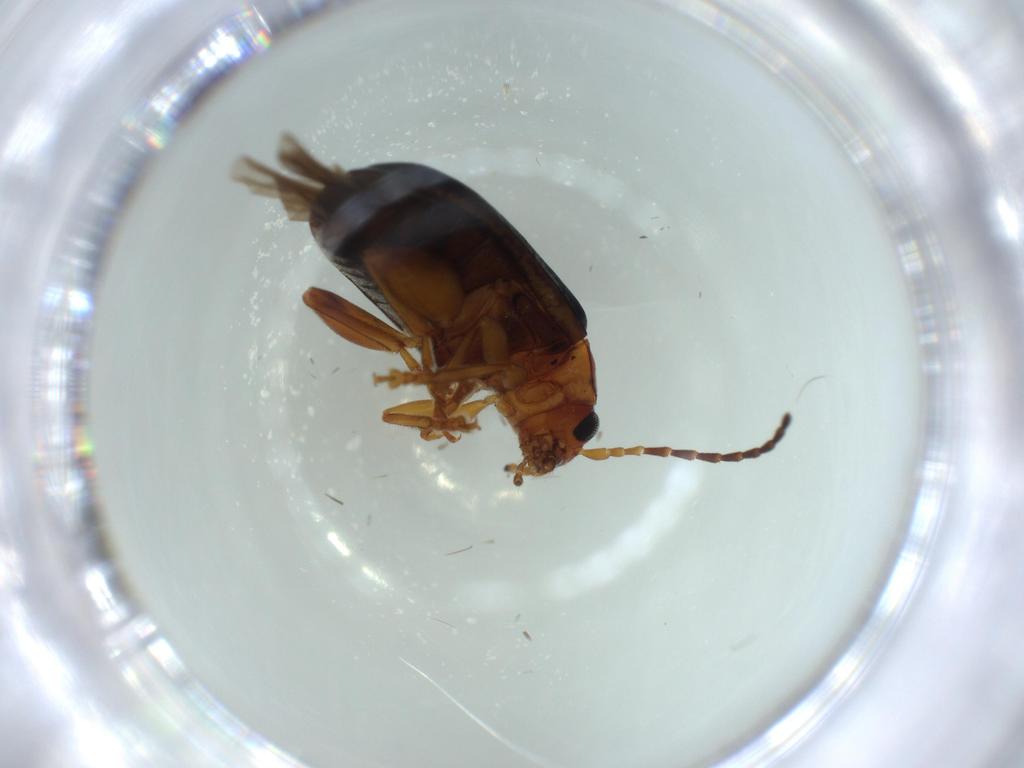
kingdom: Animalia
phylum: Arthropoda
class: Insecta
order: Coleoptera
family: Chrysomelidae
